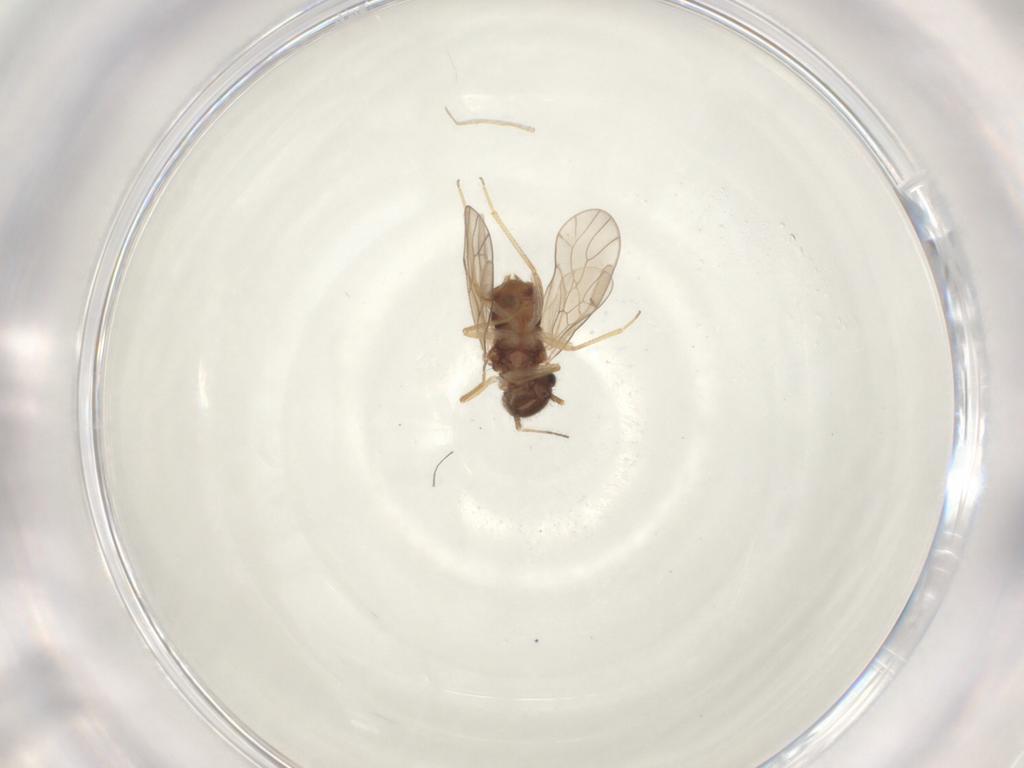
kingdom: Animalia
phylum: Arthropoda
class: Insecta
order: Psocodea
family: Ectopsocidae
